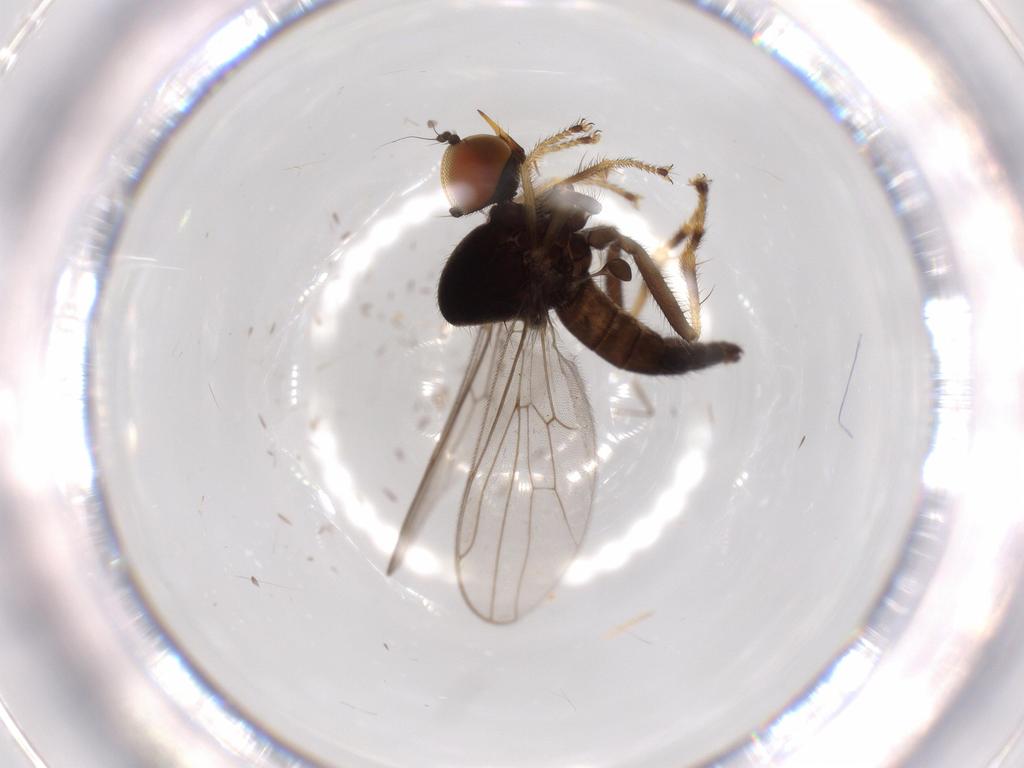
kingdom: Animalia
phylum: Arthropoda
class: Insecta
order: Diptera
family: Hybotidae
